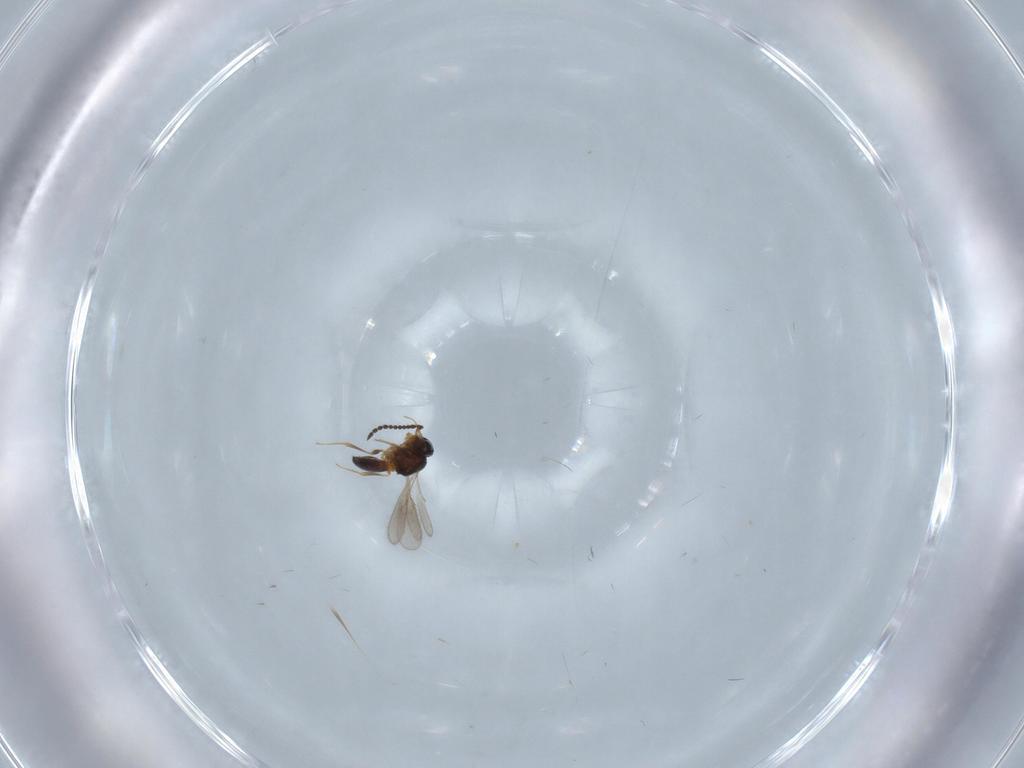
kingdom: Animalia
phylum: Arthropoda
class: Insecta
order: Hymenoptera
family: Scelionidae
